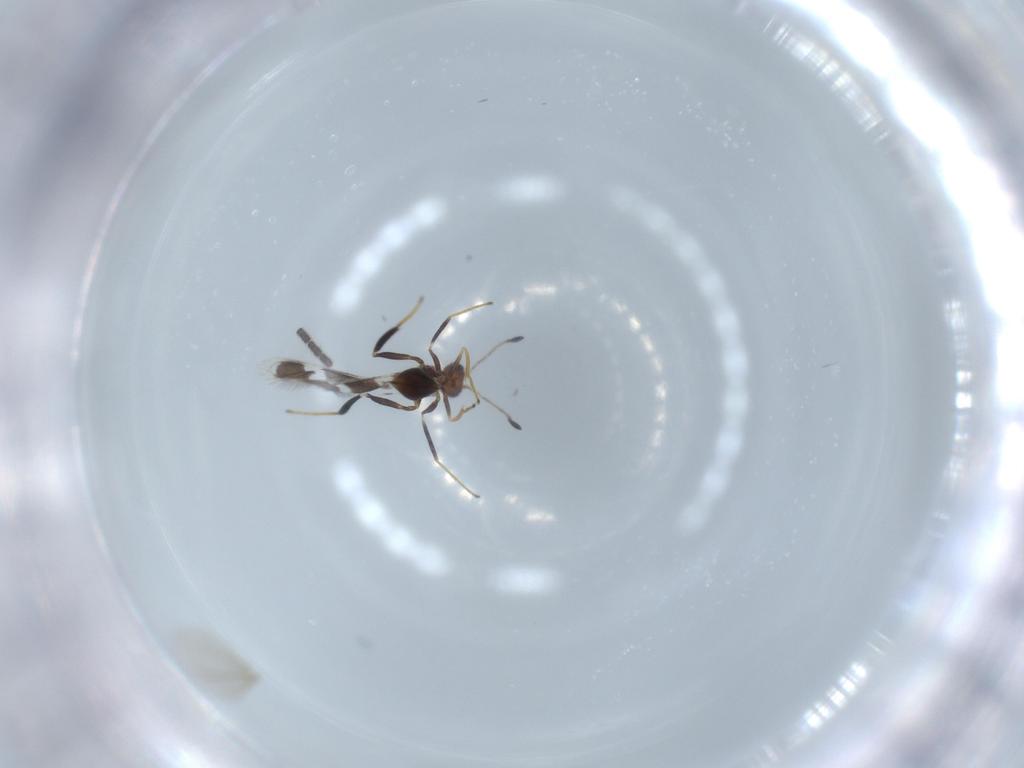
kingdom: Animalia
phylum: Arthropoda
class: Insecta
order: Hymenoptera
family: Mymaridae
